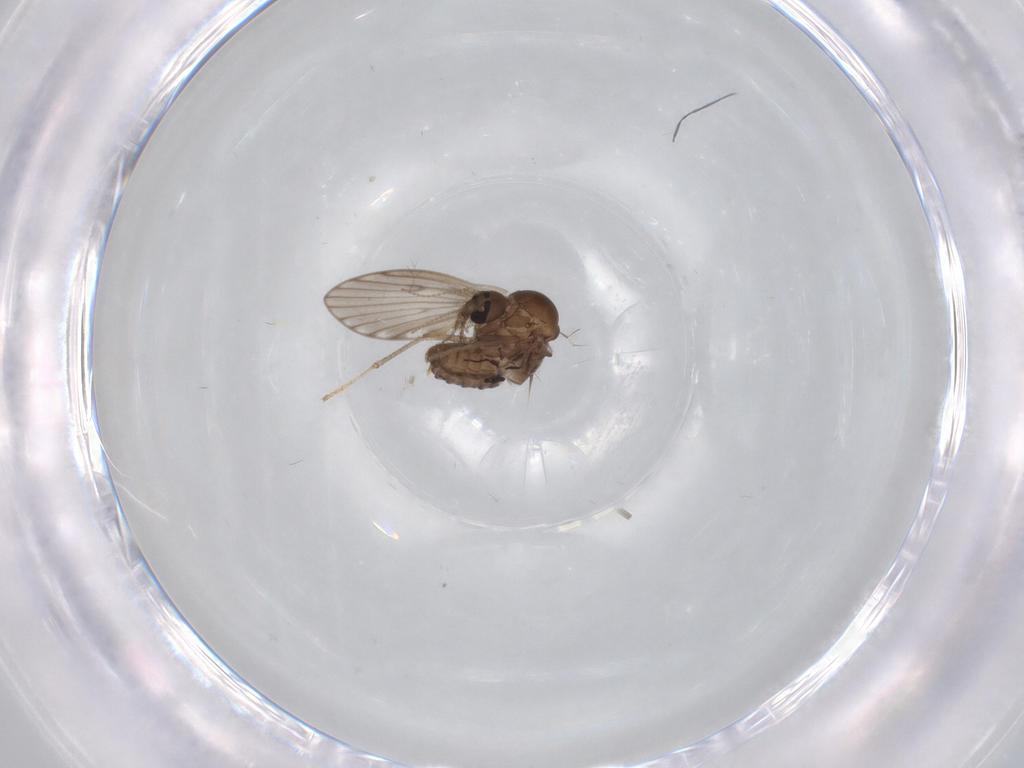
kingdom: Animalia
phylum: Arthropoda
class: Insecta
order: Diptera
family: Psychodidae
